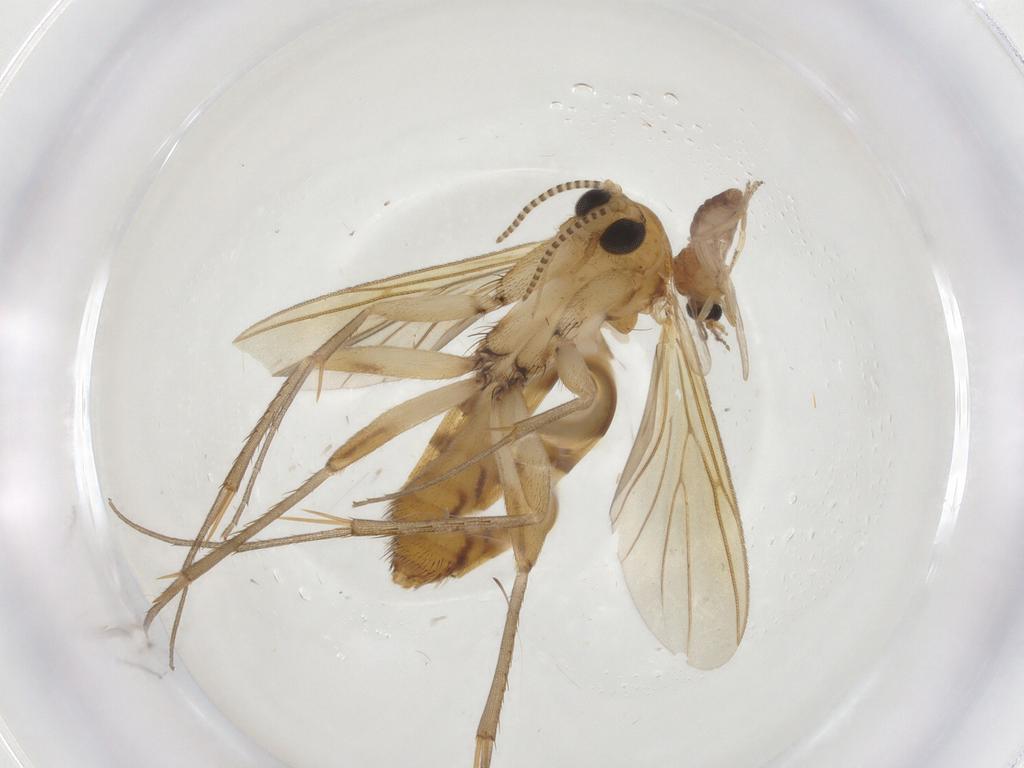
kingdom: Animalia
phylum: Arthropoda
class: Insecta
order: Diptera
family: Ceratopogonidae
